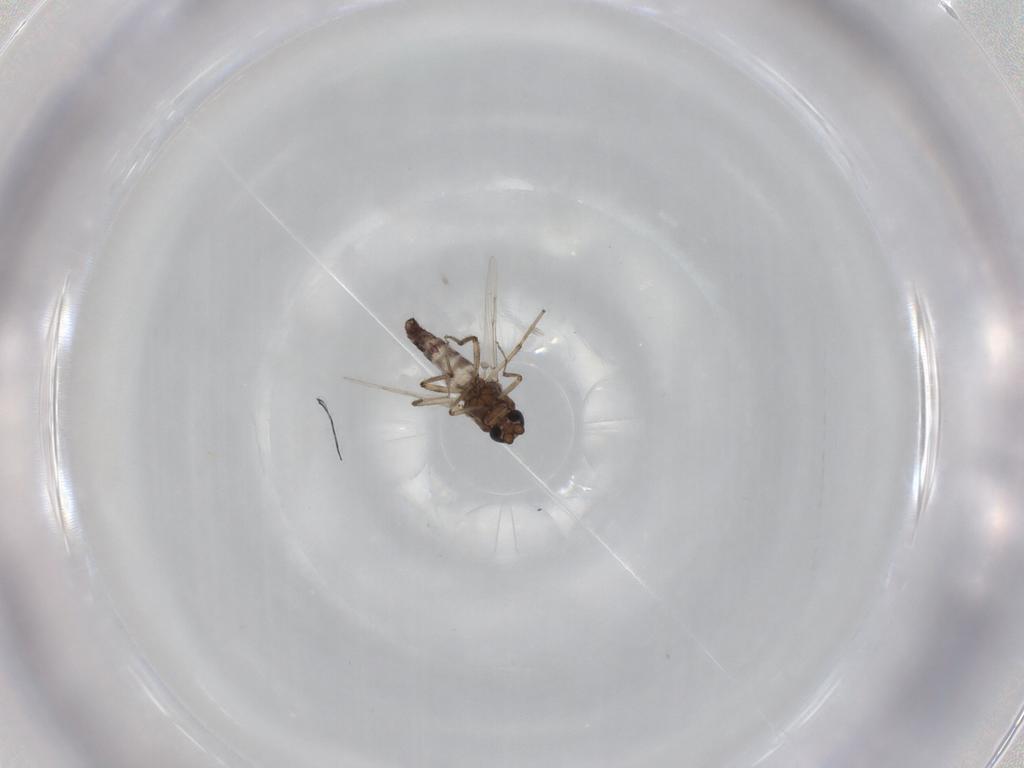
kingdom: Animalia
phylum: Arthropoda
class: Insecta
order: Diptera
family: Ceratopogonidae
